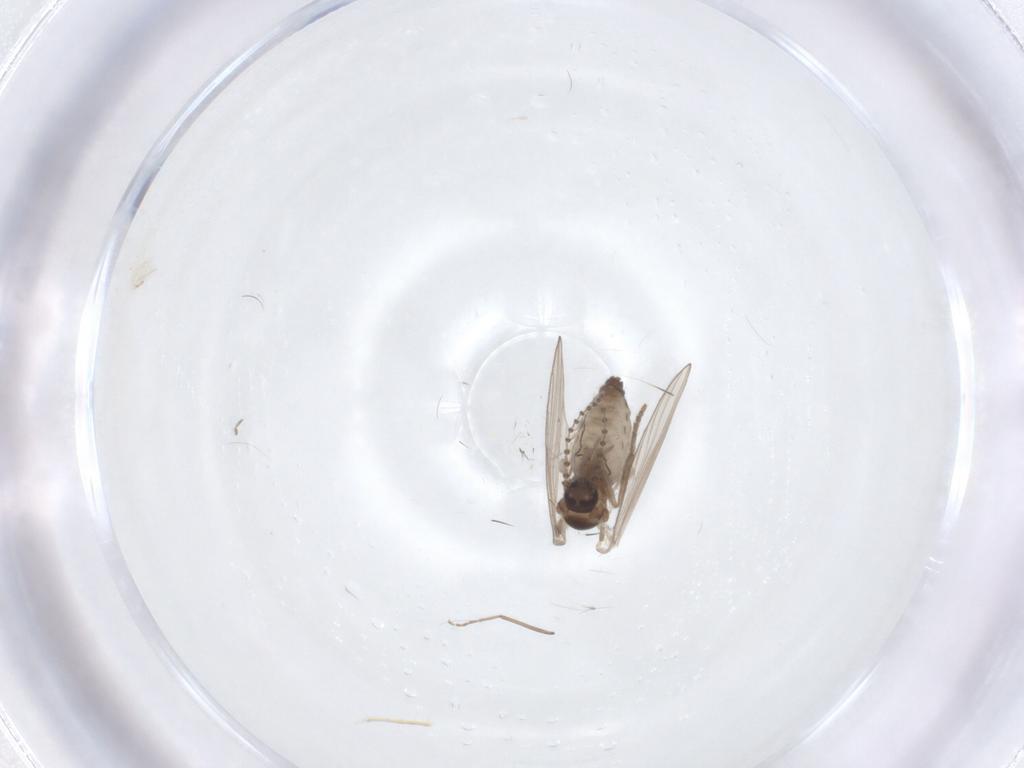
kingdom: Animalia
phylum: Arthropoda
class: Insecta
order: Diptera
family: Psychodidae
